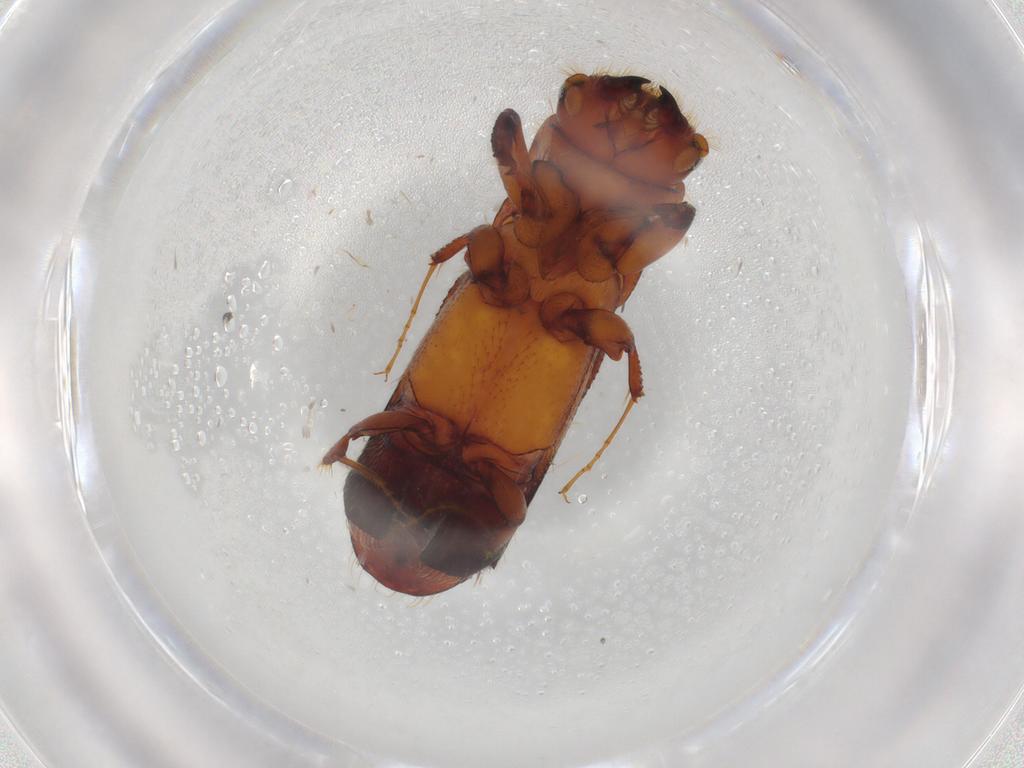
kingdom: Animalia
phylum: Arthropoda
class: Insecta
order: Coleoptera
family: Curculionidae
